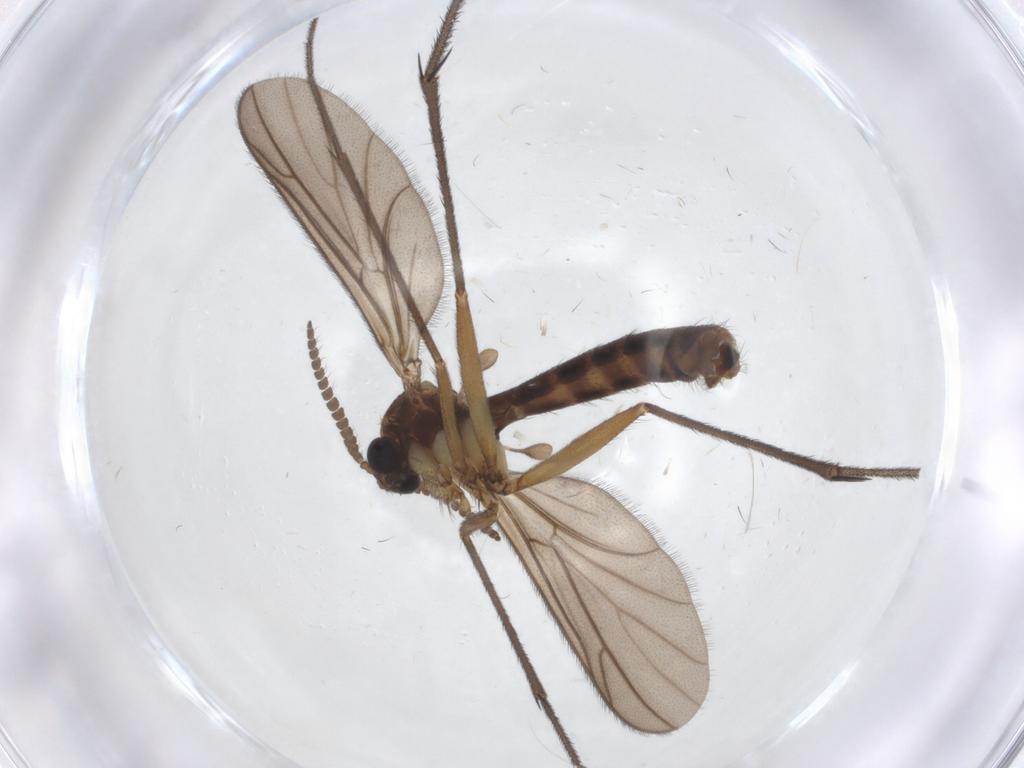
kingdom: Animalia
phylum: Arthropoda
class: Insecta
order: Diptera
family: Ditomyiidae
